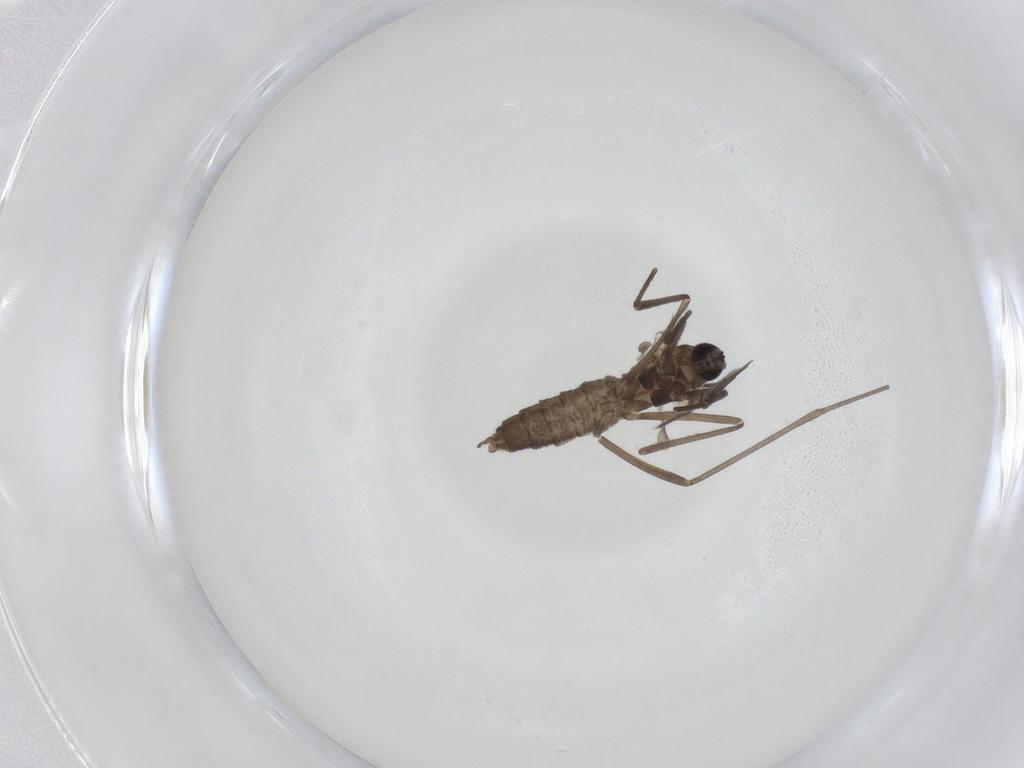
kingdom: Animalia
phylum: Arthropoda
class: Insecta
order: Diptera
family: Cecidomyiidae
